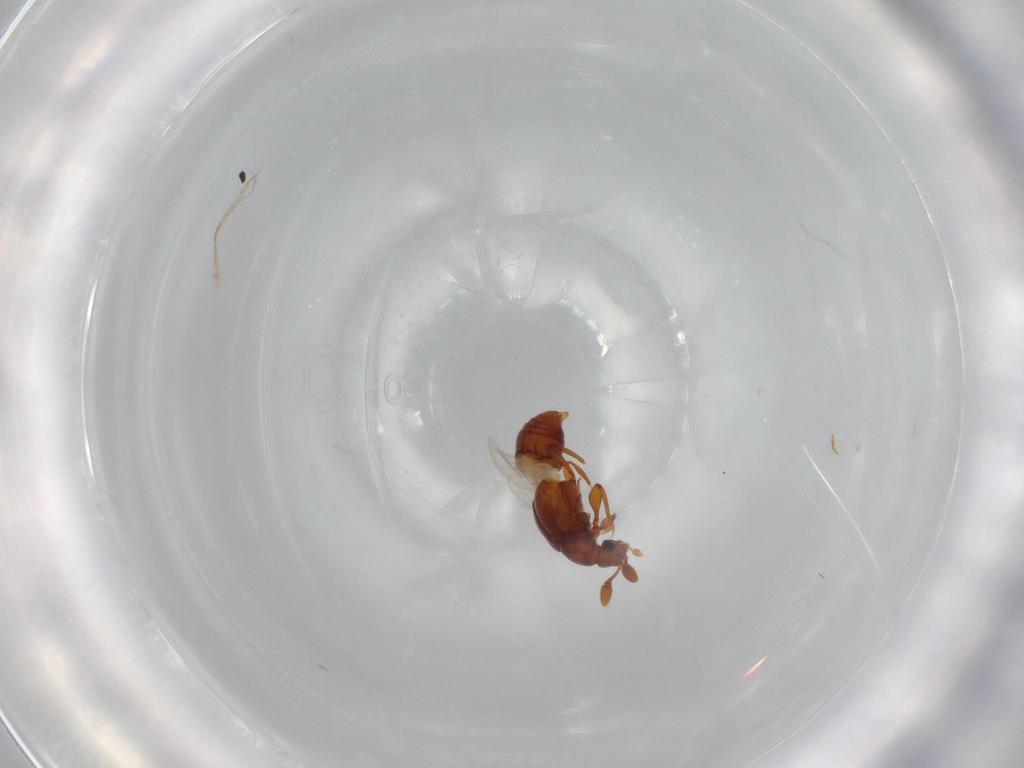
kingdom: Animalia
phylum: Arthropoda
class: Insecta
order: Coleoptera
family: Staphylinidae
